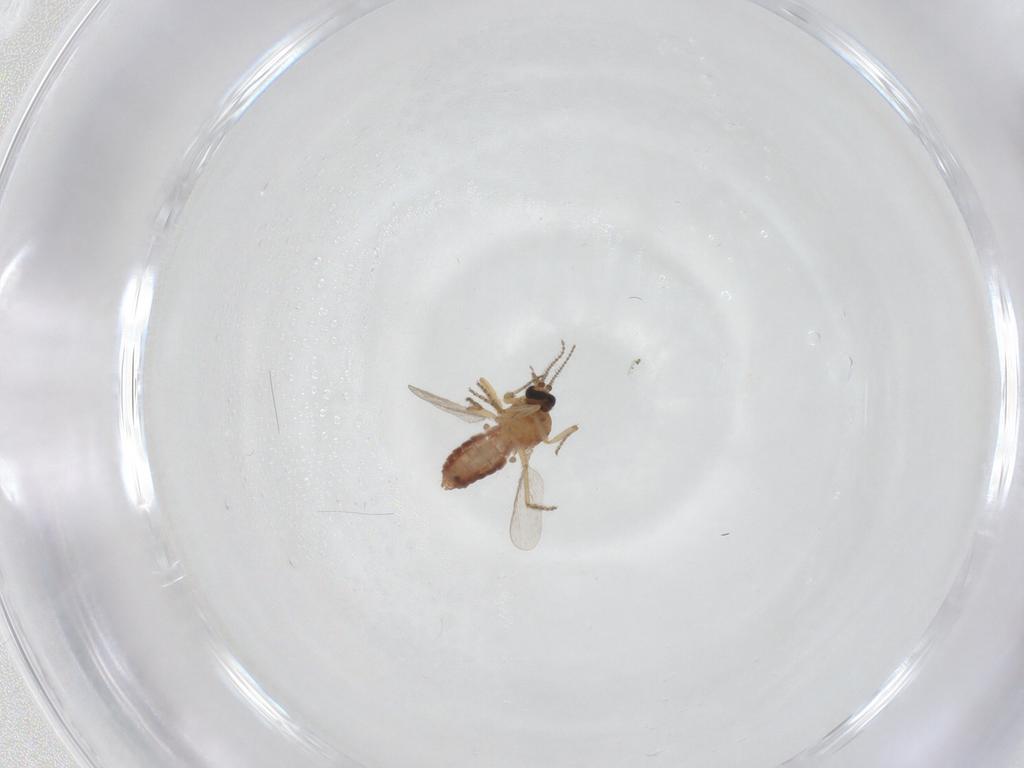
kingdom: Animalia
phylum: Arthropoda
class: Insecta
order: Diptera
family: Ceratopogonidae
